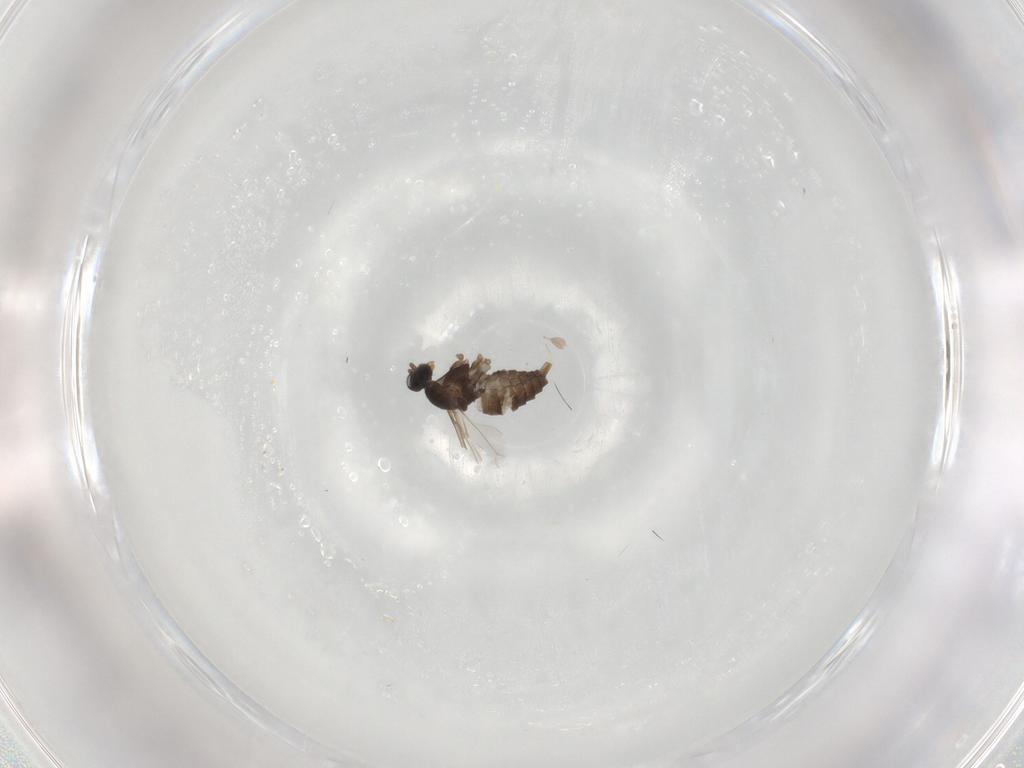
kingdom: Animalia
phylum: Arthropoda
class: Insecta
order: Diptera
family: Cecidomyiidae
